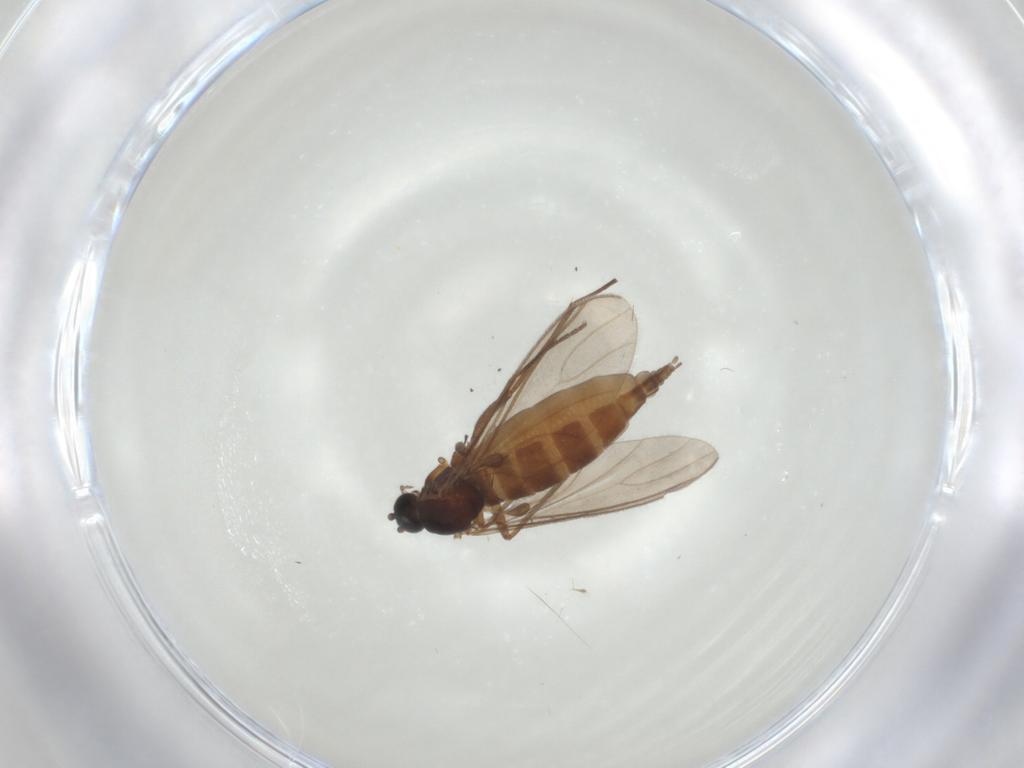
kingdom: Animalia
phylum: Arthropoda
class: Insecta
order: Diptera
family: Sciaridae
